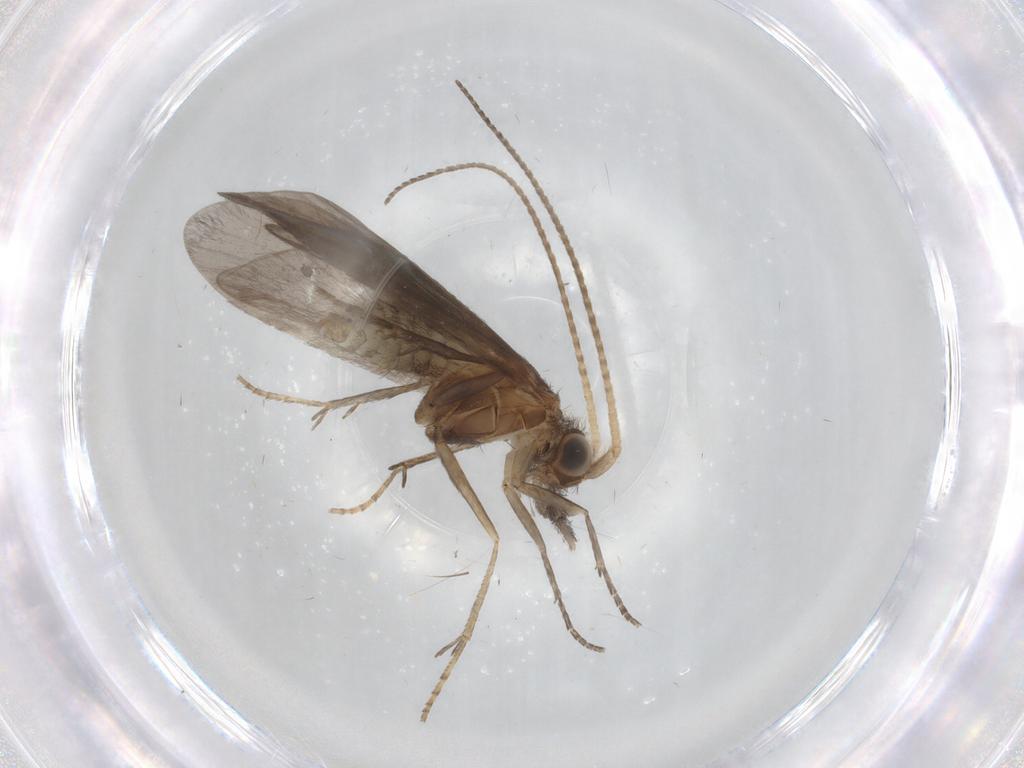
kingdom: Animalia
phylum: Arthropoda
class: Insecta
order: Trichoptera
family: Helicopsychidae
